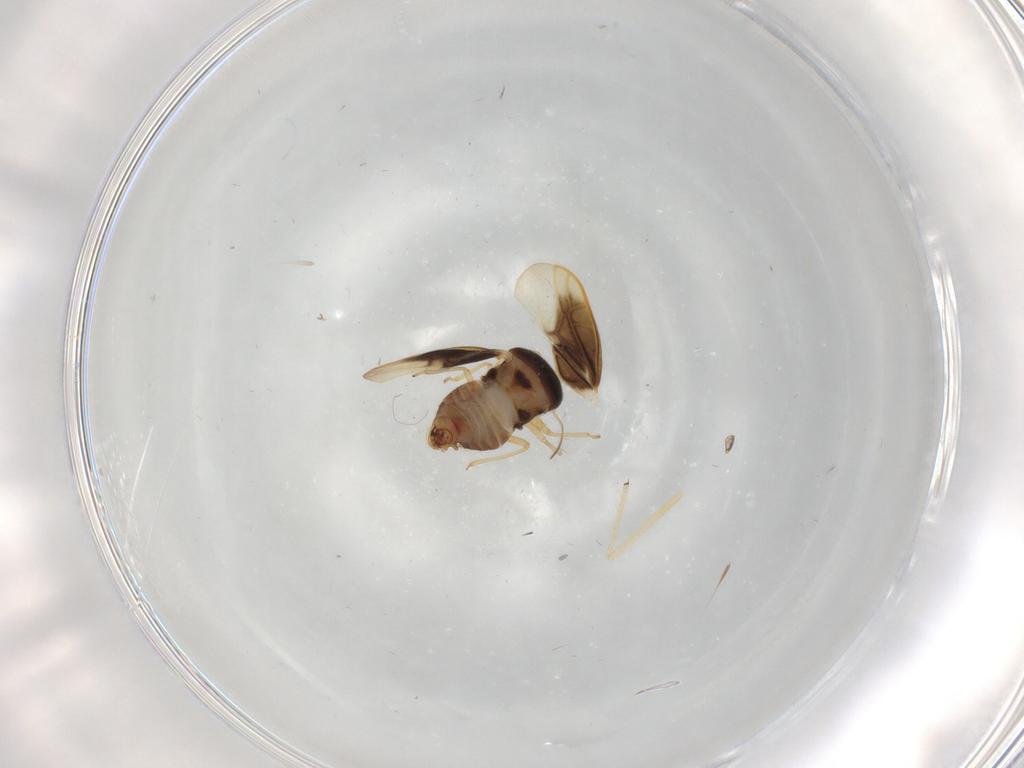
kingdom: Animalia
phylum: Arthropoda
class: Insecta
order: Hemiptera
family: Schizopteridae
